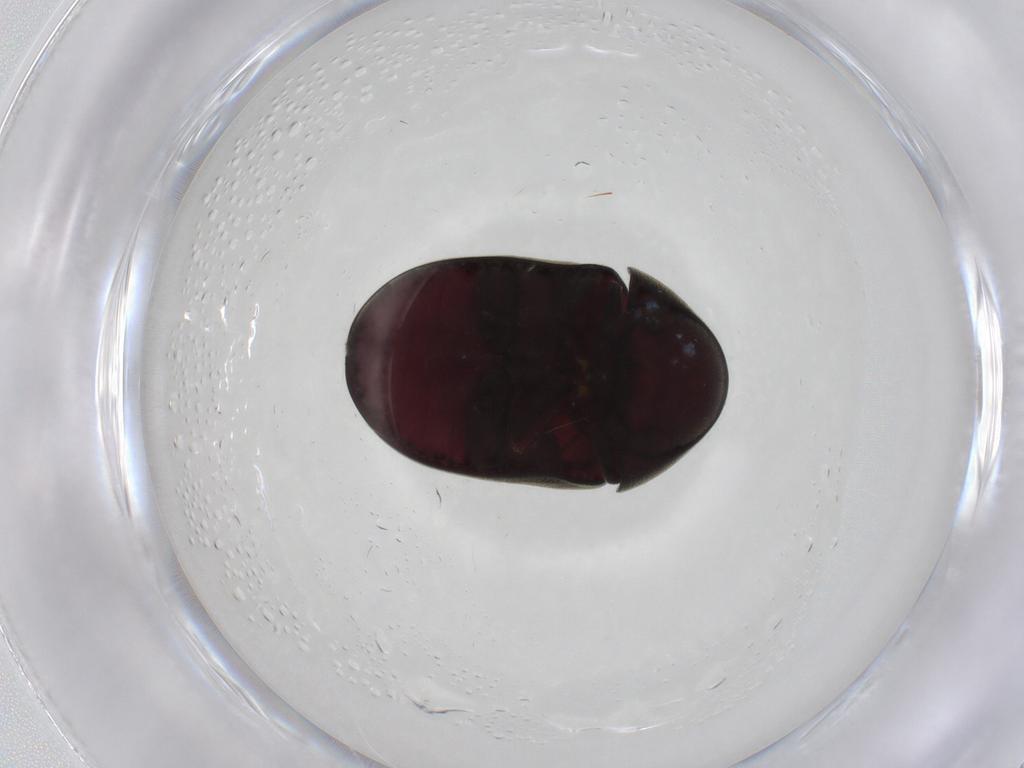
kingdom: Animalia
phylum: Arthropoda
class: Insecta
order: Coleoptera
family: Ptinidae
